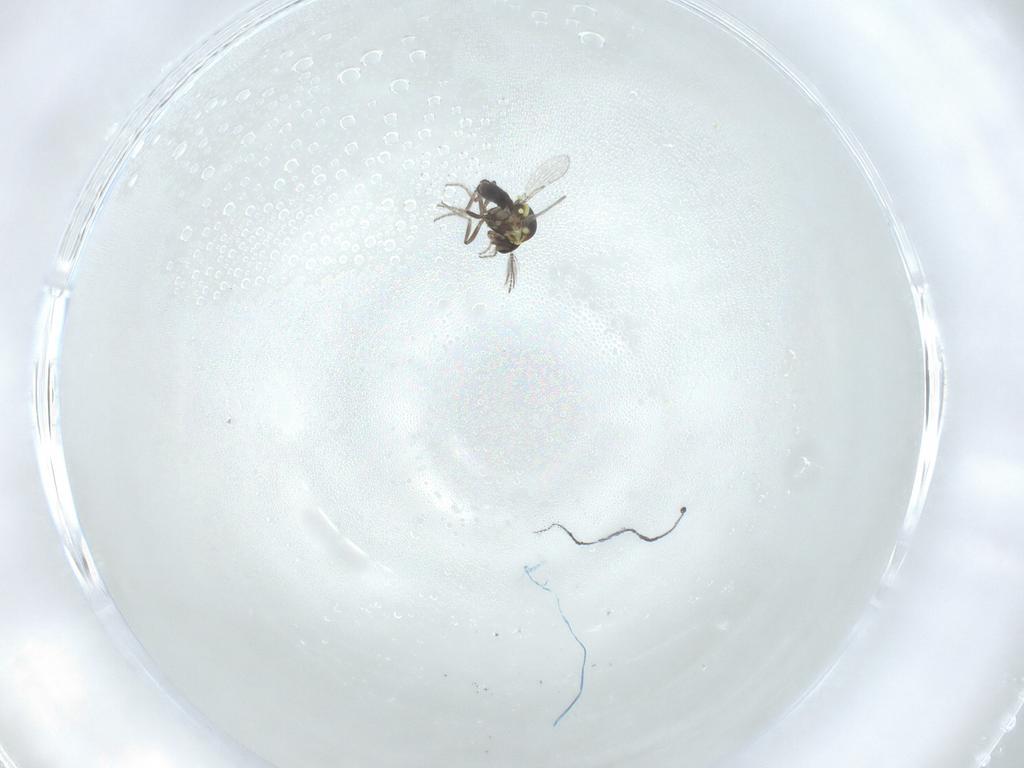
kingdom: Animalia
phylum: Arthropoda
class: Insecta
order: Diptera
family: Ceratopogonidae
